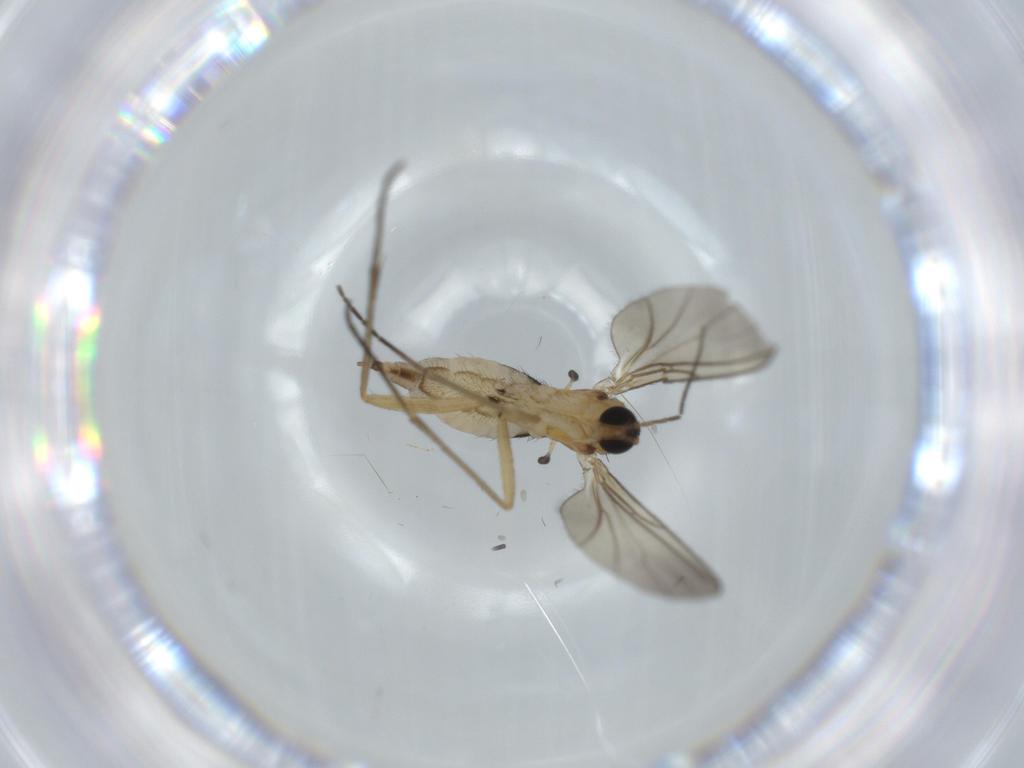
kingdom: Animalia
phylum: Arthropoda
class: Insecta
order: Diptera
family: Sciaridae
